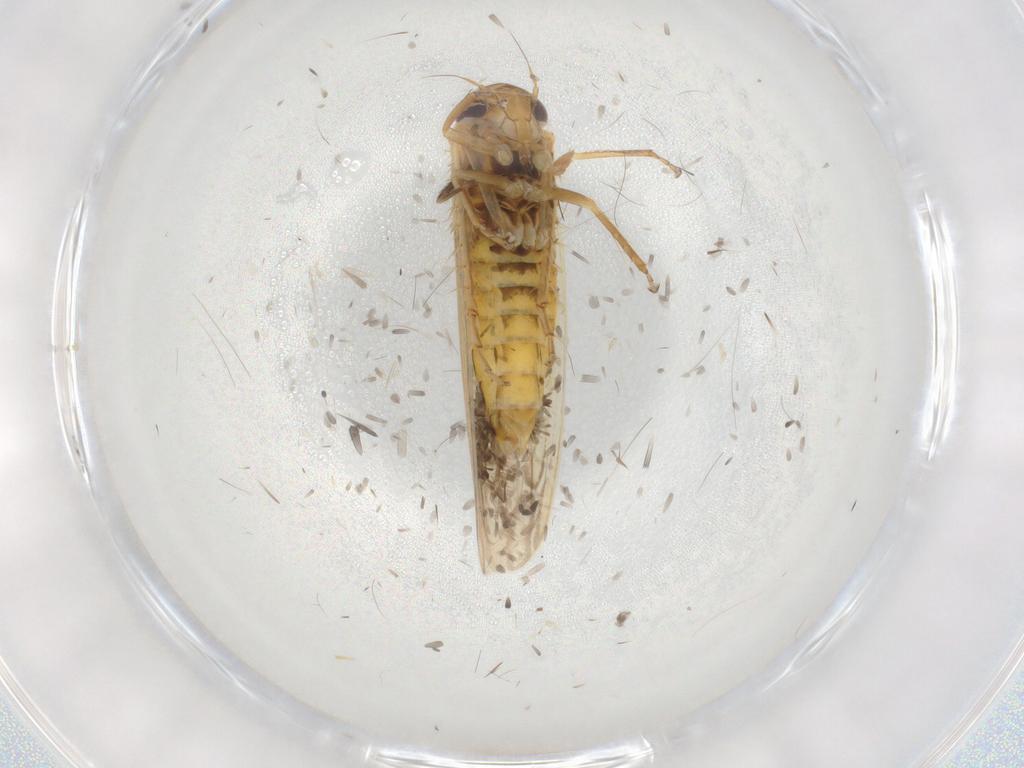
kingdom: Animalia
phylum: Arthropoda
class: Insecta
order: Hemiptera
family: Cicadellidae
